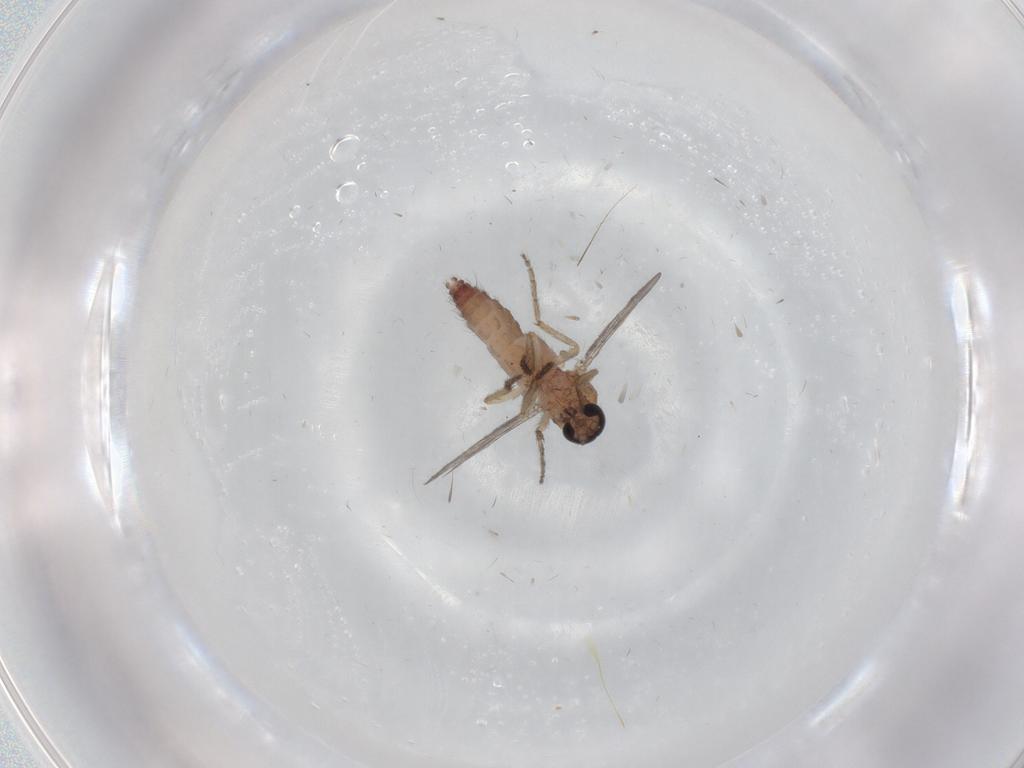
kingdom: Animalia
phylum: Arthropoda
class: Insecta
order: Diptera
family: Ceratopogonidae
